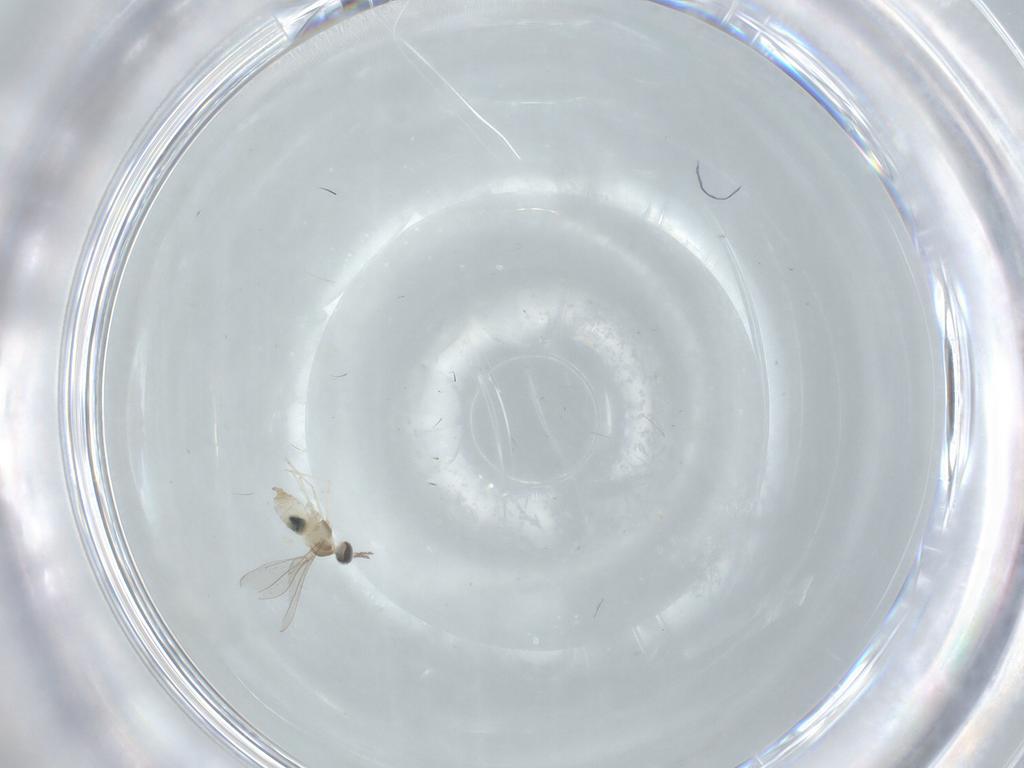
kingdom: Animalia
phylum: Arthropoda
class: Insecta
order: Diptera
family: Cecidomyiidae
